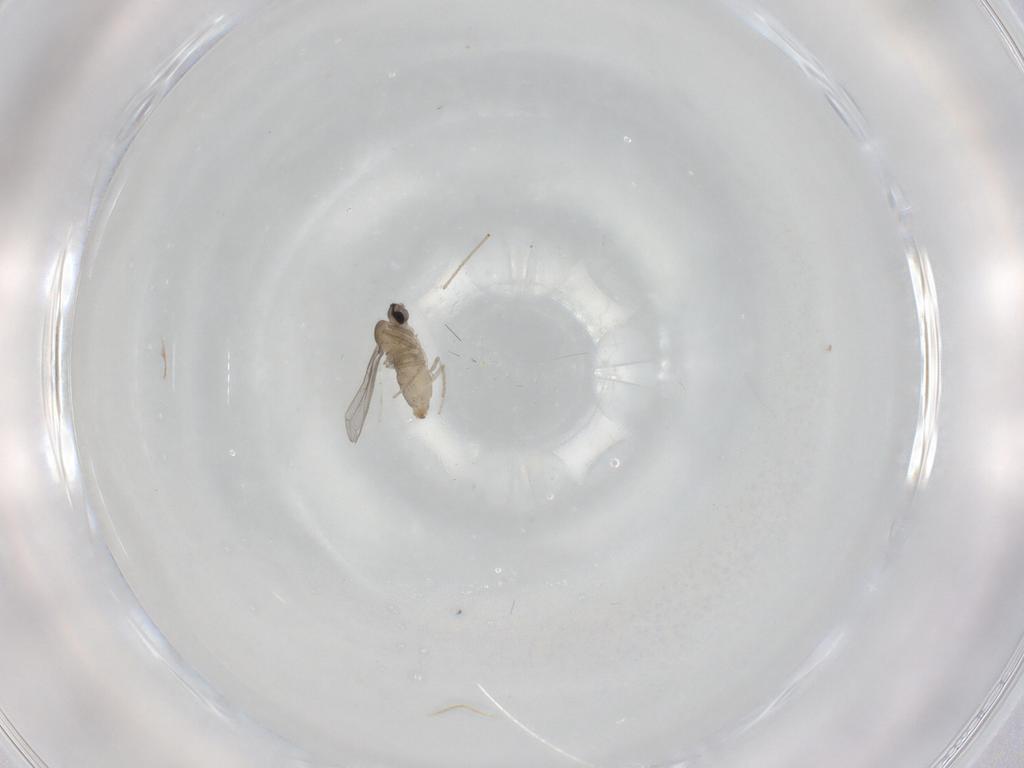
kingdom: Animalia
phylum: Arthropoda
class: Insecta
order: Diptera
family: Cecidomyiidae
